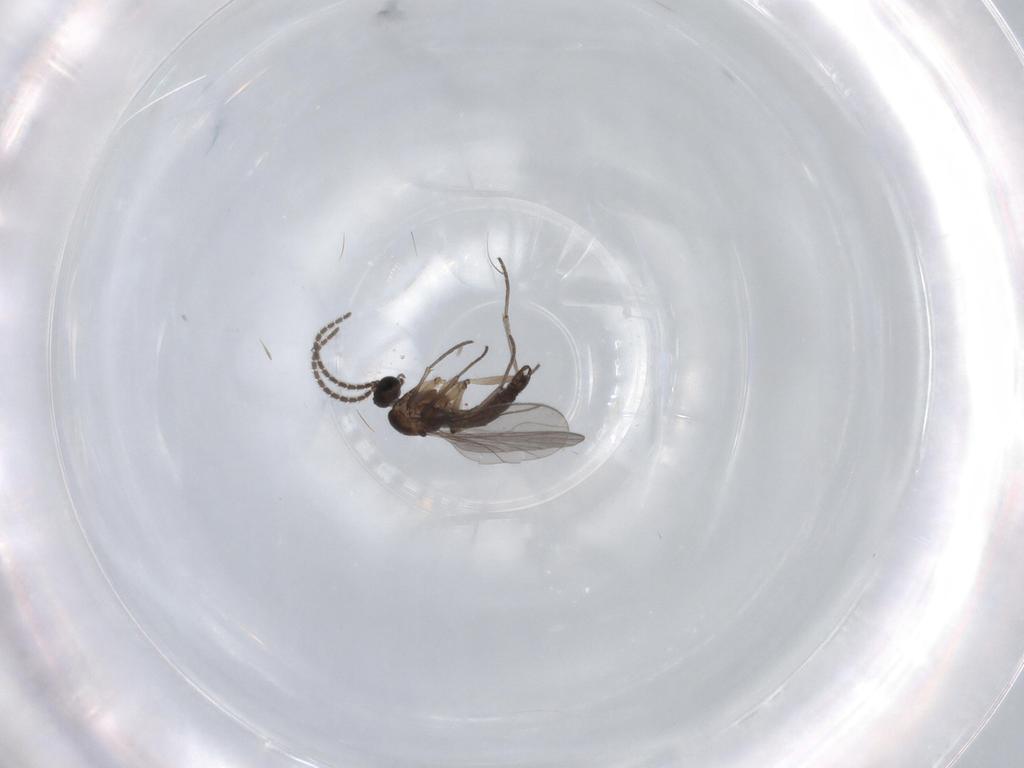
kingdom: Animalia
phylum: Arthropoda
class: Insecta
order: Diptera
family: Sciaridae
